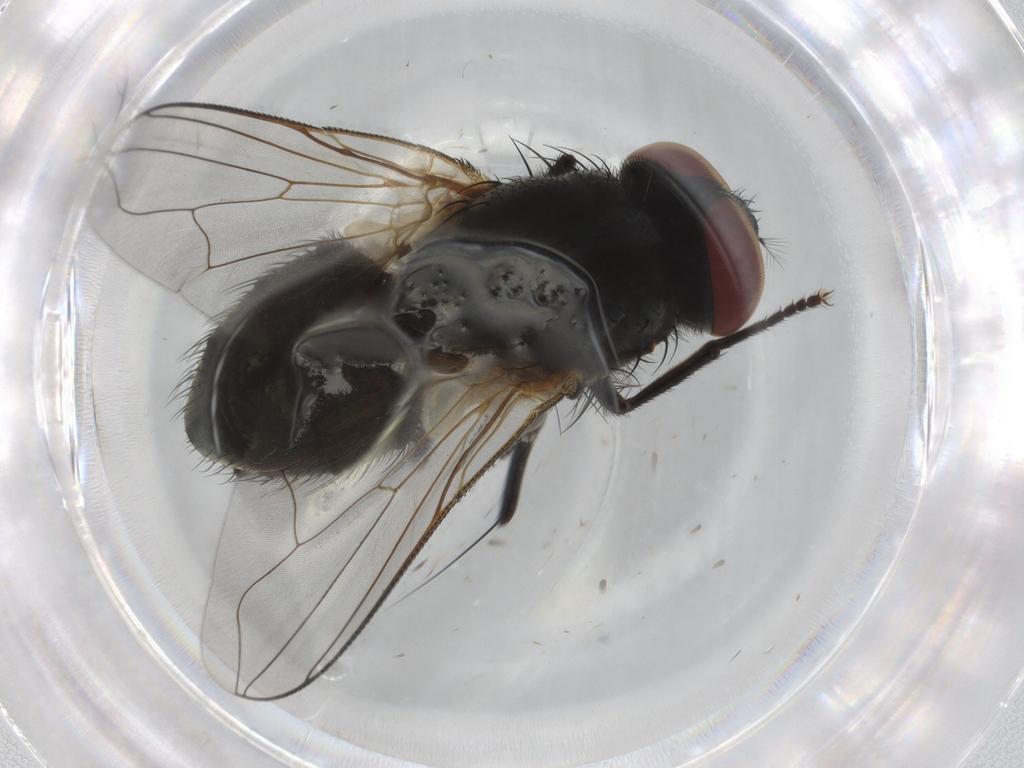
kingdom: Animalia
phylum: Arthropoda
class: Insecta
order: Diptera
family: Muscidae
